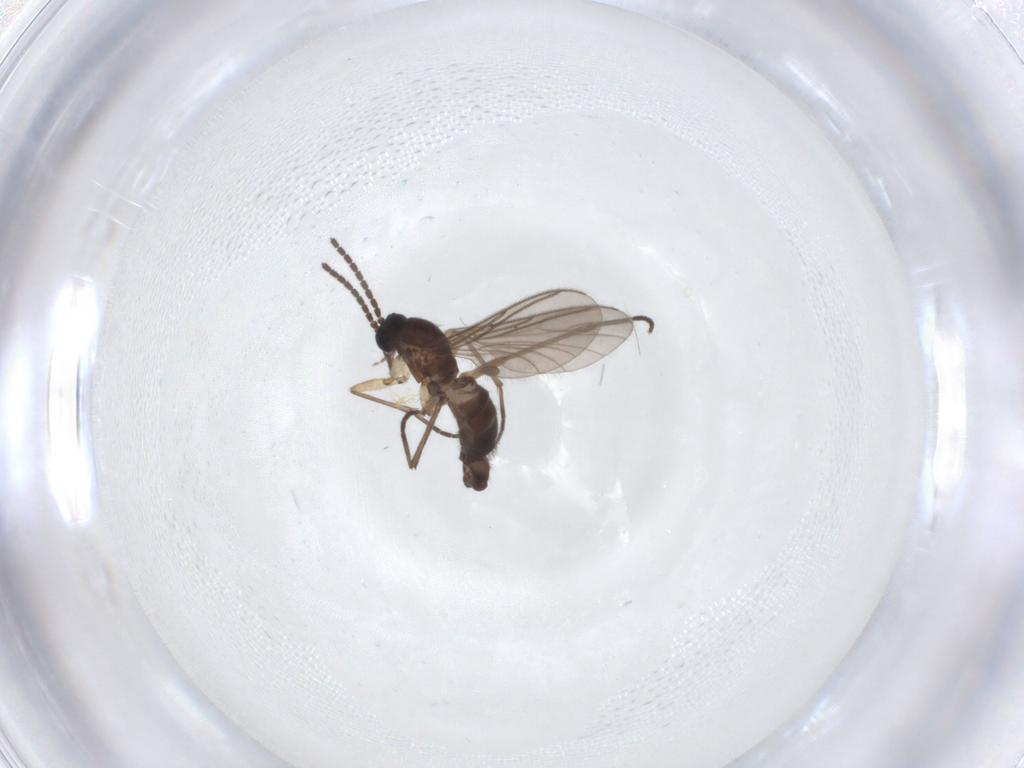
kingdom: Animalia
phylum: Arthropoda
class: Insecta
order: Diptera
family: Sciaridae
